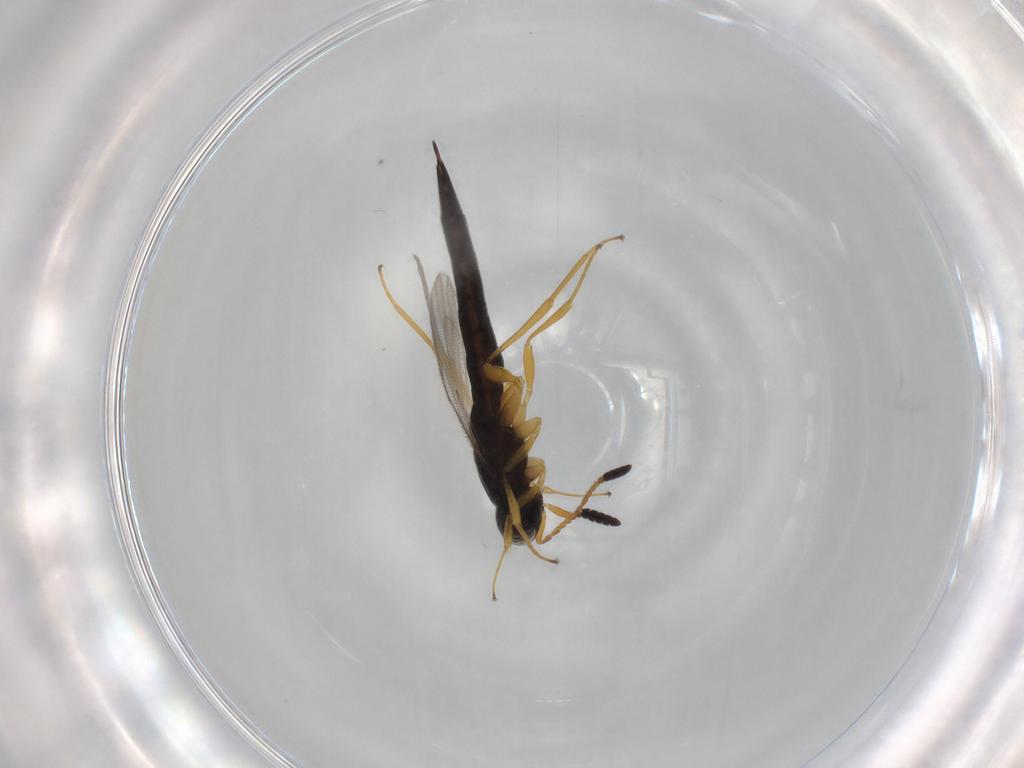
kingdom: Animalia
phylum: Arthropoda
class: Insecta
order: Hymenoptera
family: Scelionidae
